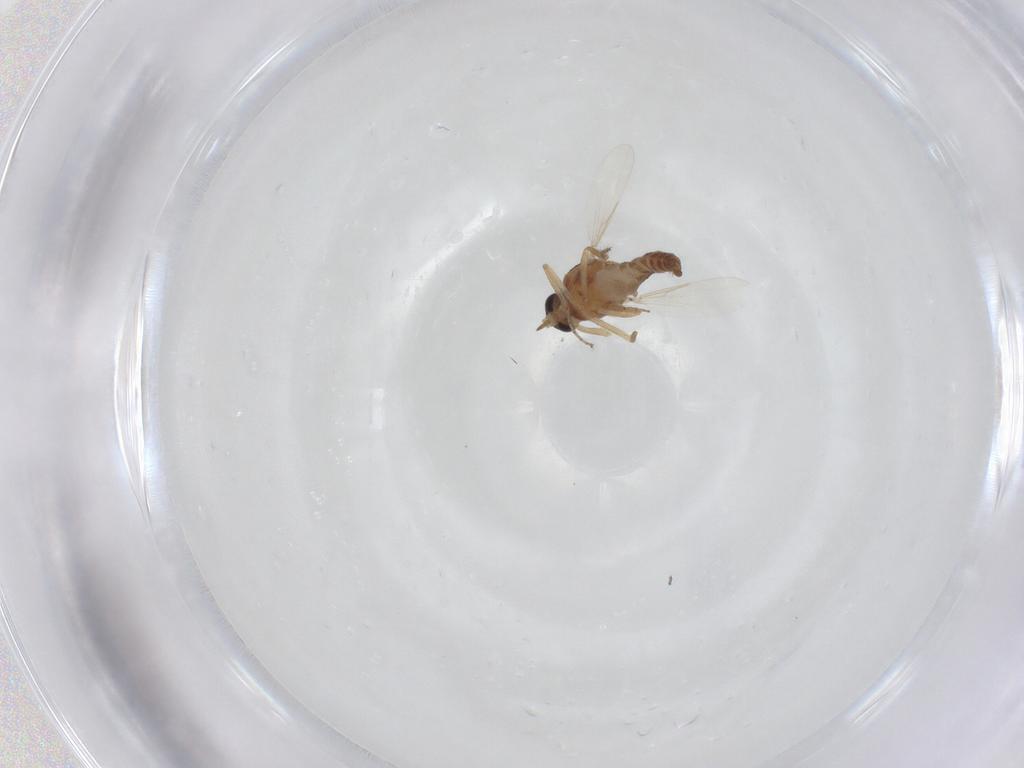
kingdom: Animalia
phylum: Arthropoda
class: Insecta
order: Diptera
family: Ceratopogonidae
